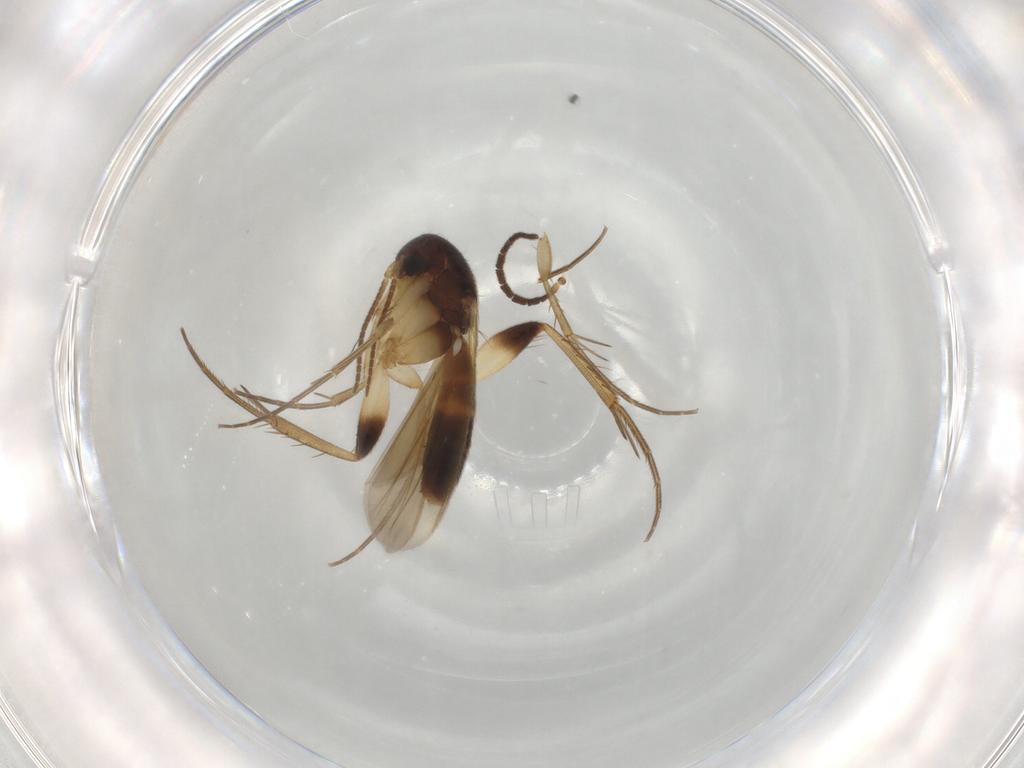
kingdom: Animalia
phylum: Arthropoda
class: Insecta
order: Diptera
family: Sciaridae
